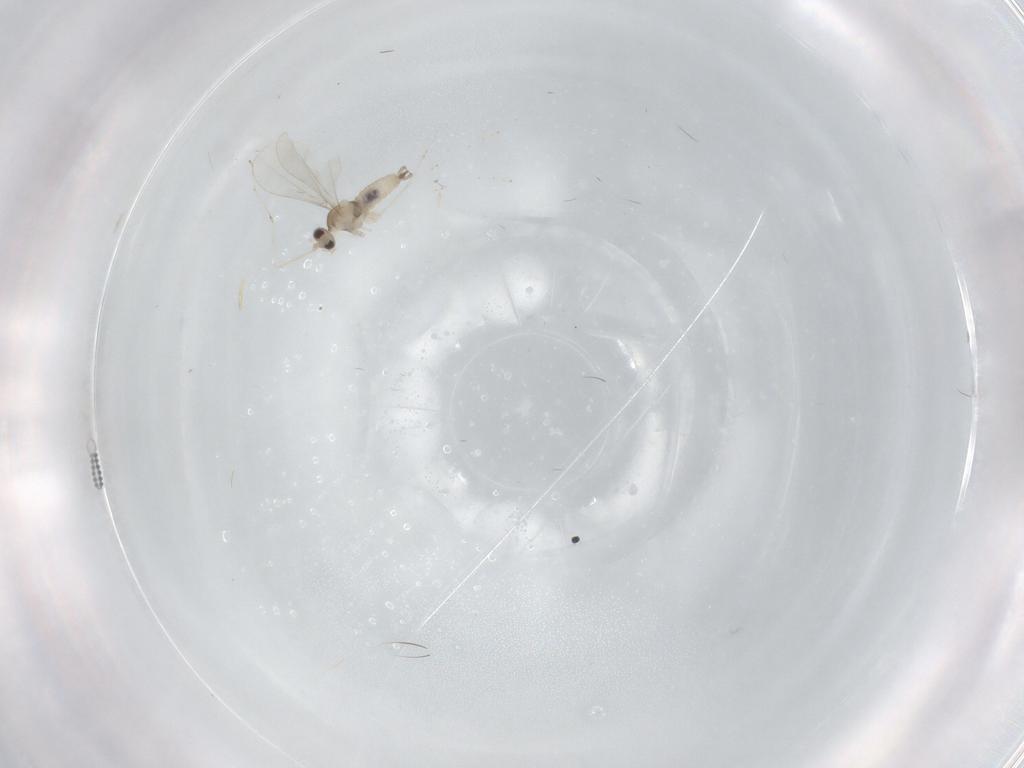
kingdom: Animalia
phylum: Arthropoda
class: Insecta
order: Diptera
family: Cecidomyiidae
